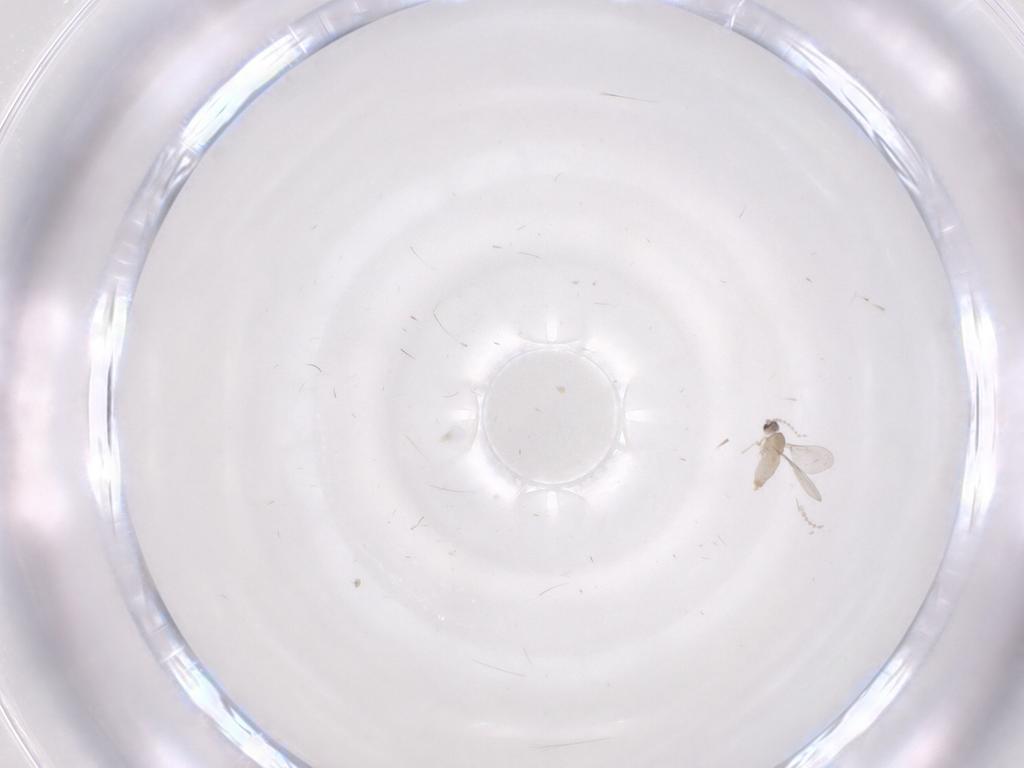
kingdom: Animalia
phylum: Arthropoda
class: Insecta
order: Diptera
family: Cecidomyiidae
